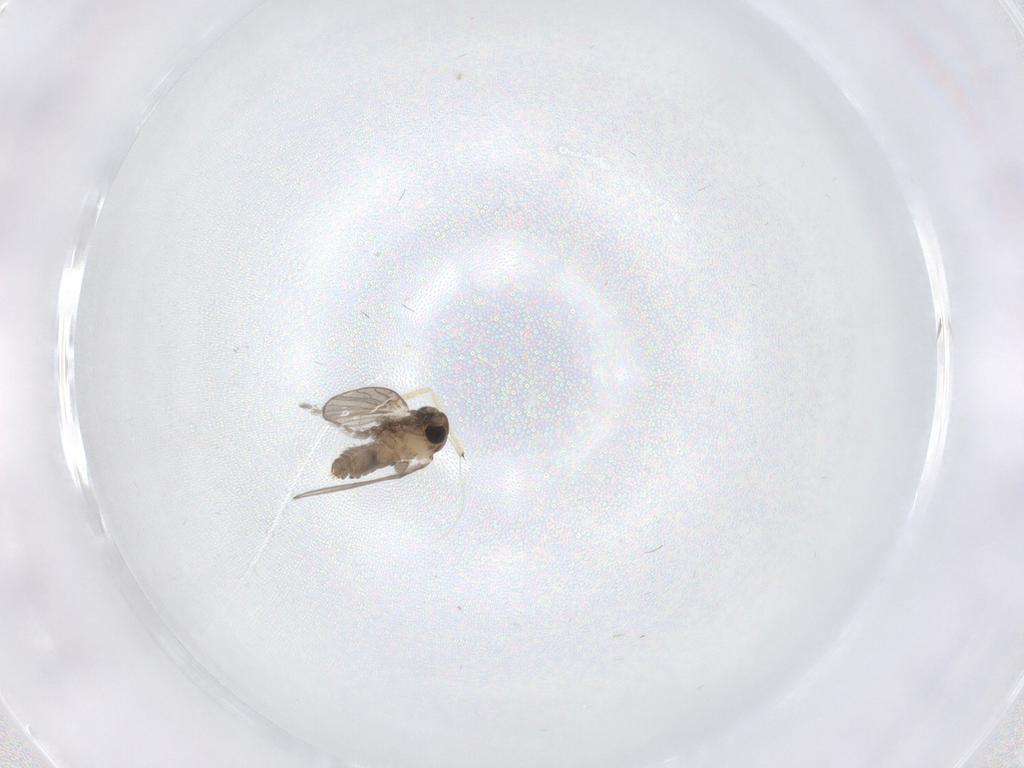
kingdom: Animalia
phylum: Arthropoda
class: Insecta
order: Diptera
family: Chironomidae
